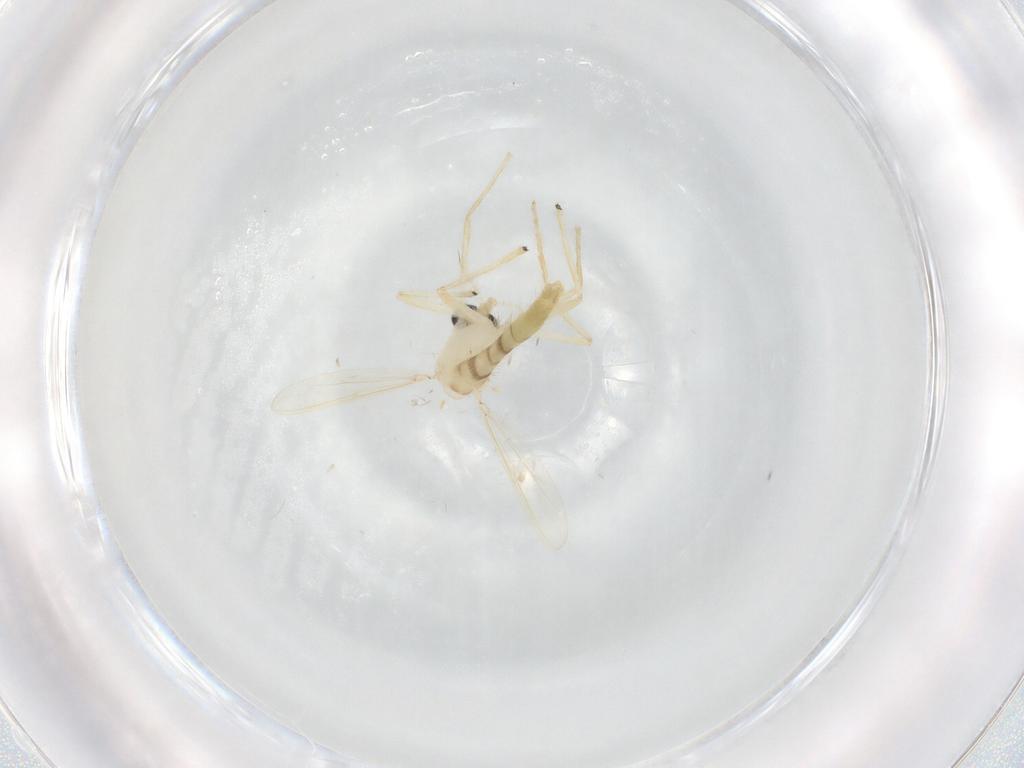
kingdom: Animalia
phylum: Arthropoda
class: Insecta
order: Diptera
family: Chironomidae
